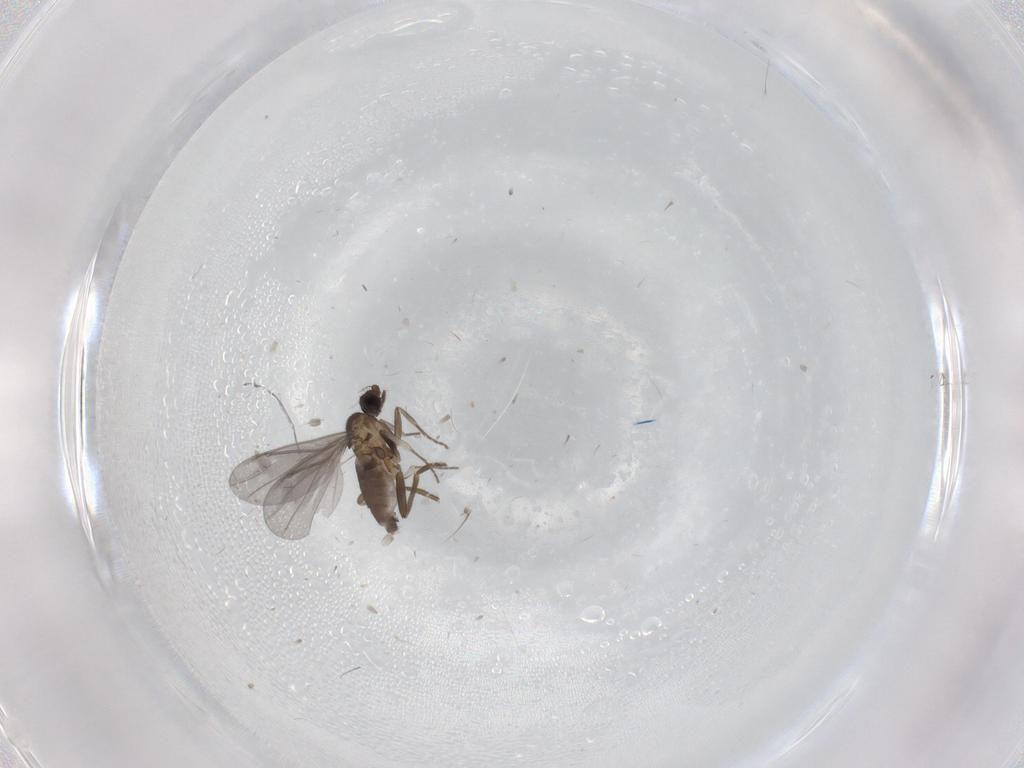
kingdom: Animalia
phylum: Arthropoda
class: Insecta
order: Diptera
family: Phoridae
